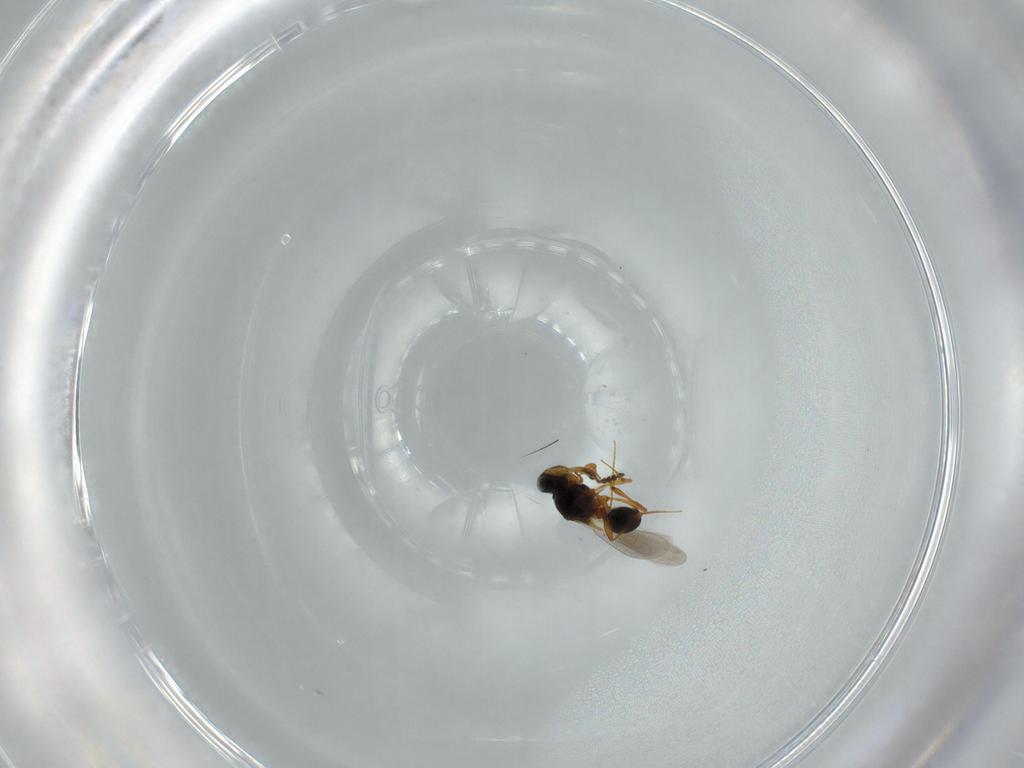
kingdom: Animalia
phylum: Arthropoda
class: Insecta
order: Hymenoptera
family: Platygastridae
